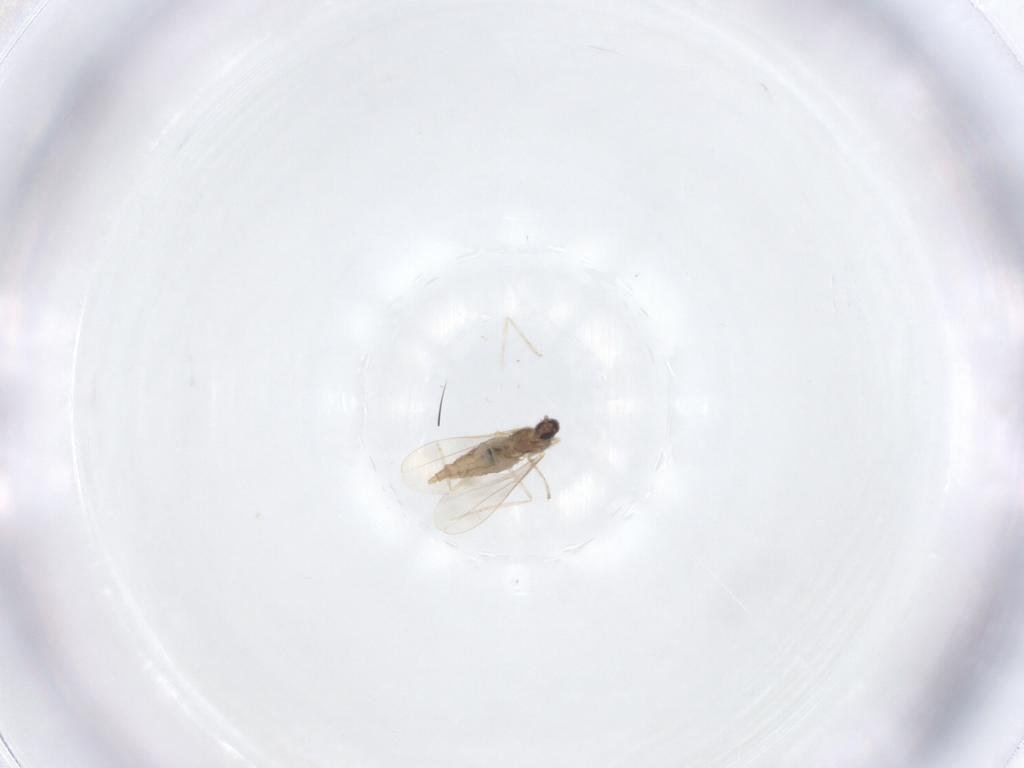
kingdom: Animalia
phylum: Arthropoda
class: Insecta
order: Diptera
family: Cecidomyiidae
